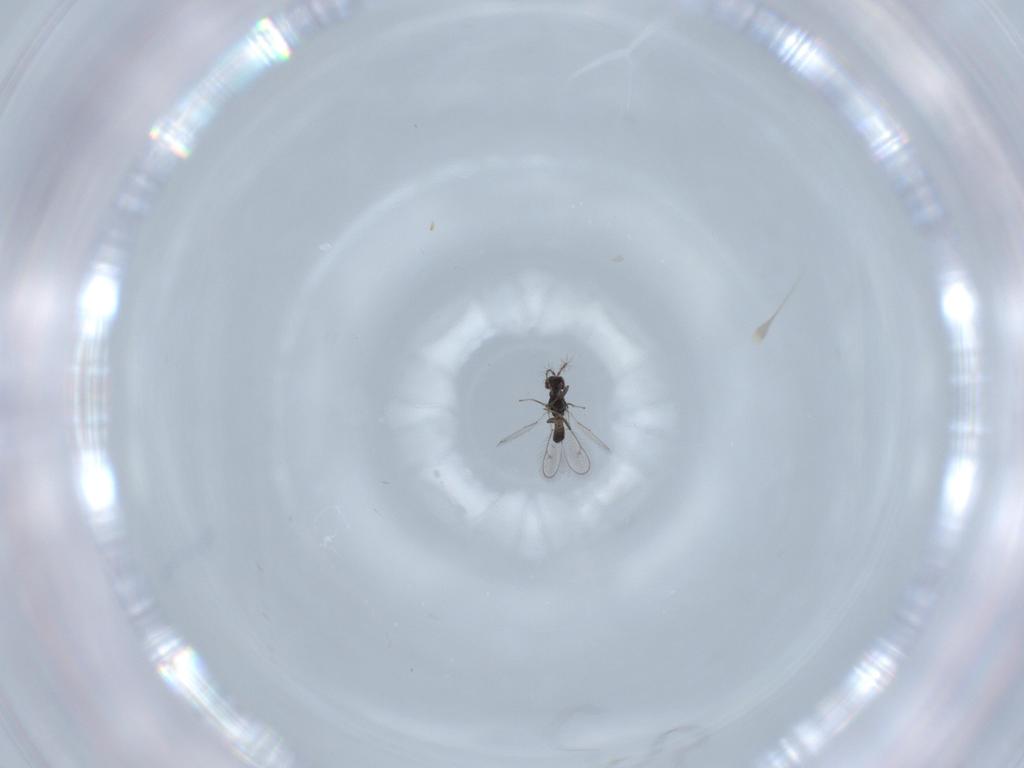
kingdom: Animalia
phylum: Arthropoda
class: Insecta
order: Hymenoptera
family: Pteromalidae
